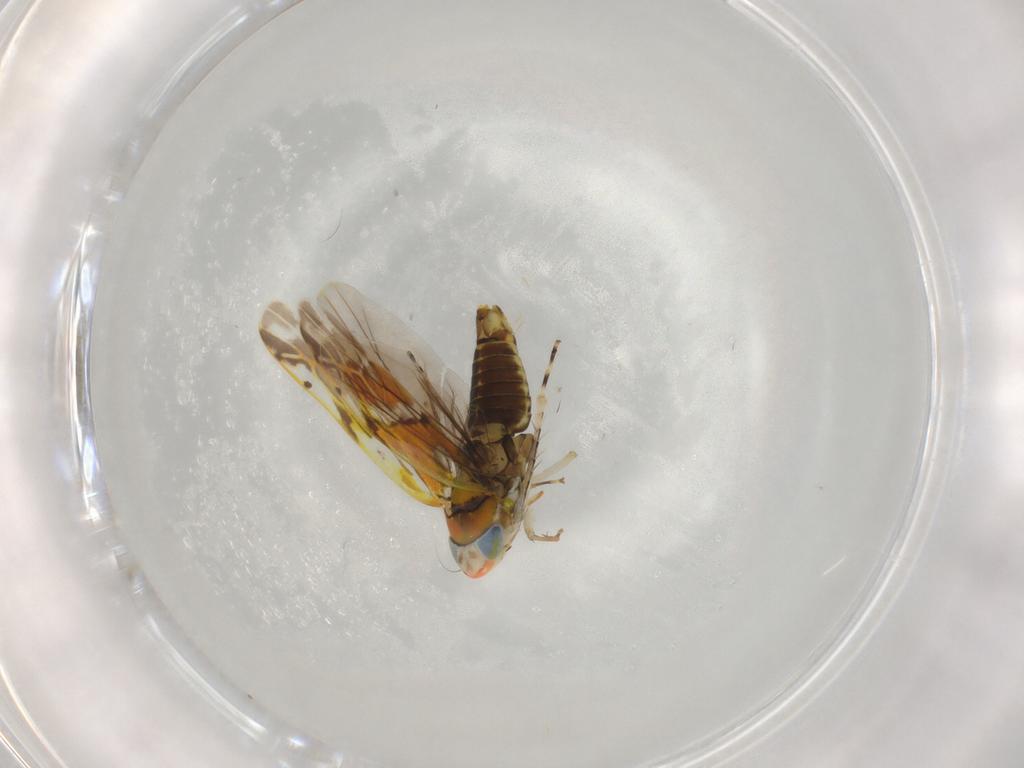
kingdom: Animalia
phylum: Arthropoda
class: Insecta
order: Hemiptera
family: Cicadellidae
